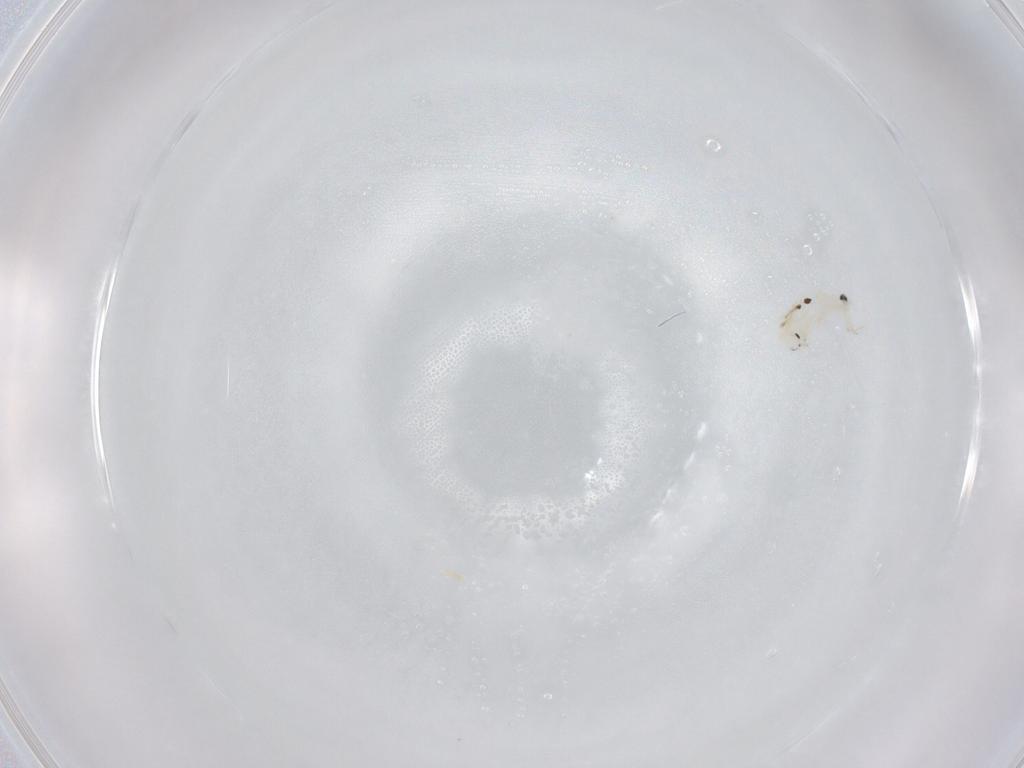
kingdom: Animalia
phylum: Arthropoda
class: Collembola
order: Entomobryomorpha
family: Entomobryidae
